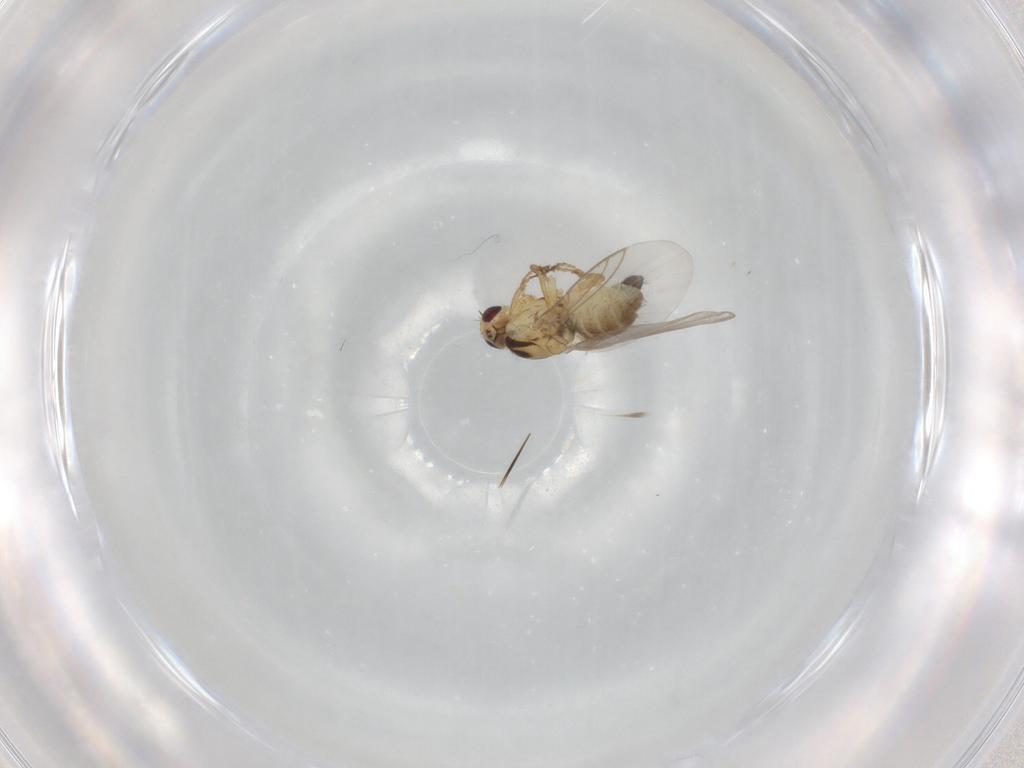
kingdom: Animalia
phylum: Arthropoda
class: Insecta
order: Diptera
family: Agromyzidae
